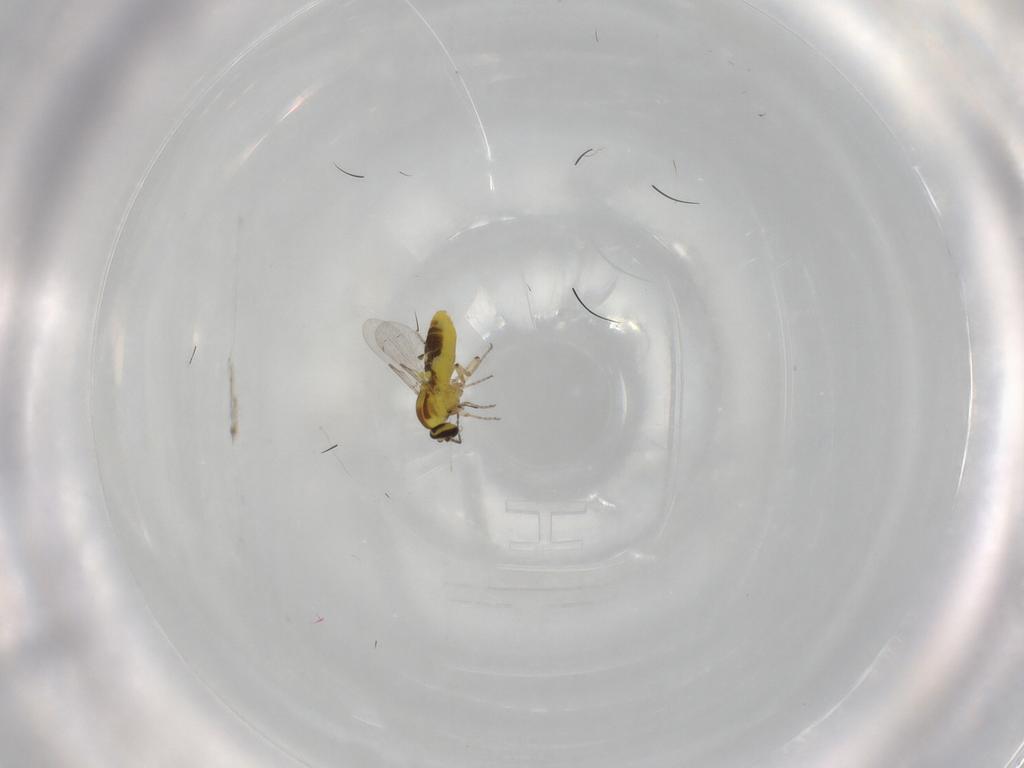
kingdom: Animalia
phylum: Arthropoda
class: Insecta
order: Diptera
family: Ceratopogonidae
